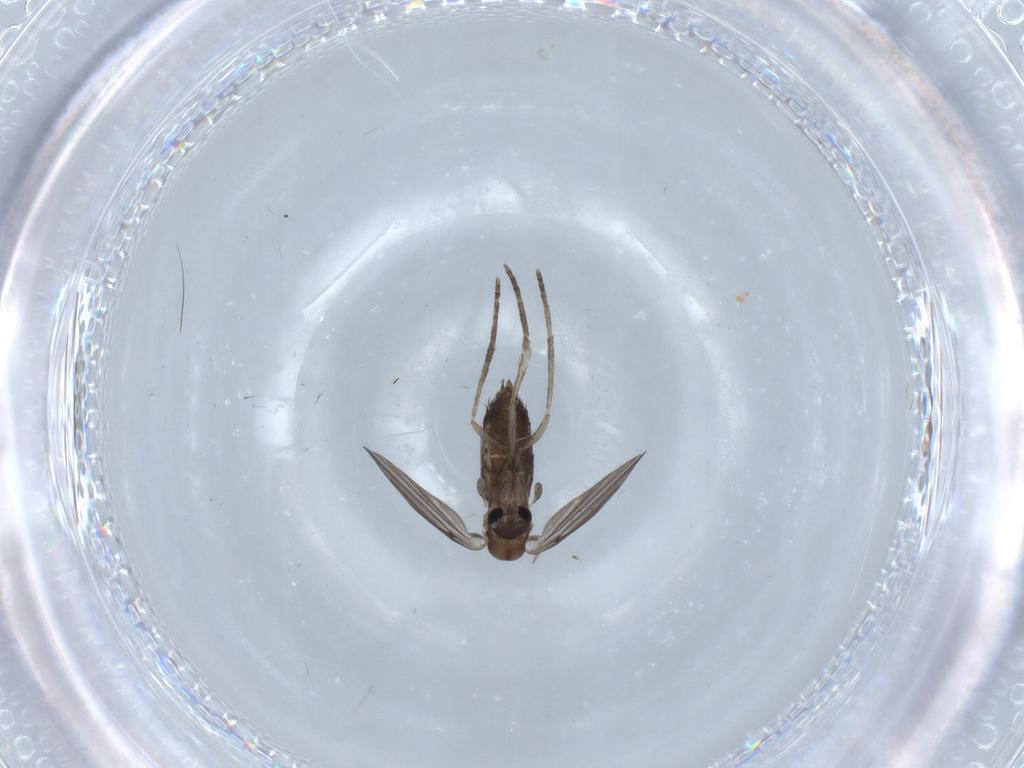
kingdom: Animalia
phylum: Arthropoda
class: Insecta
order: Diptera
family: Psychodidae
